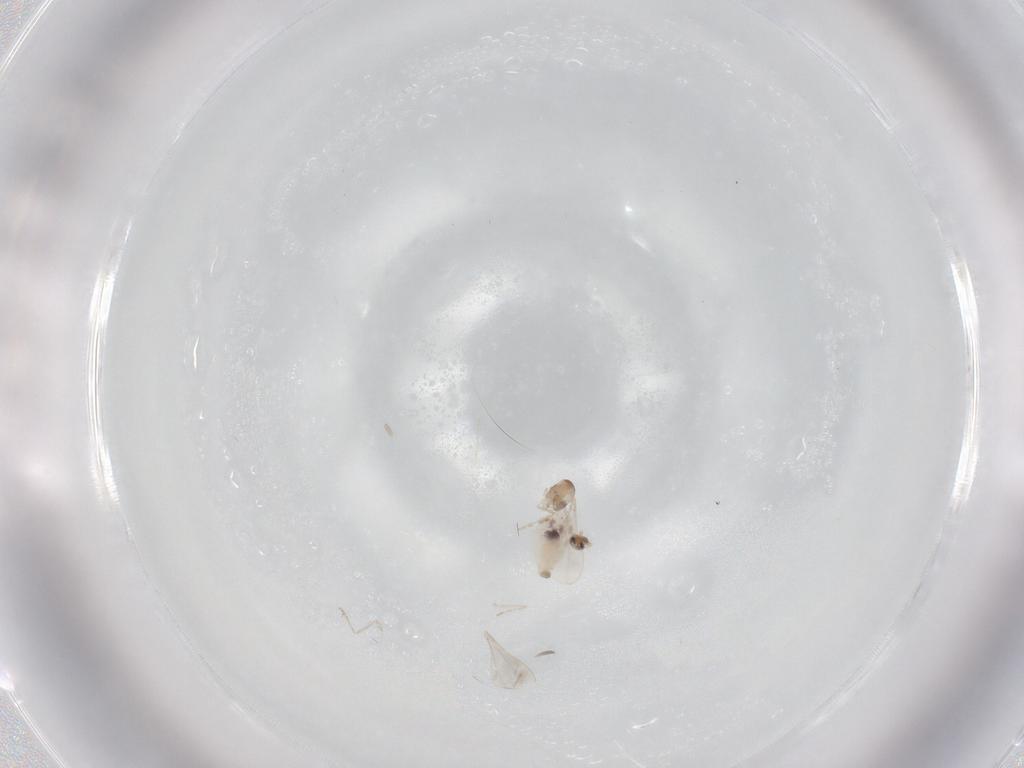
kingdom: Animalia
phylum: Arthropoda
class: Insecta
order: Diptera
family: Cecidomyiidae
